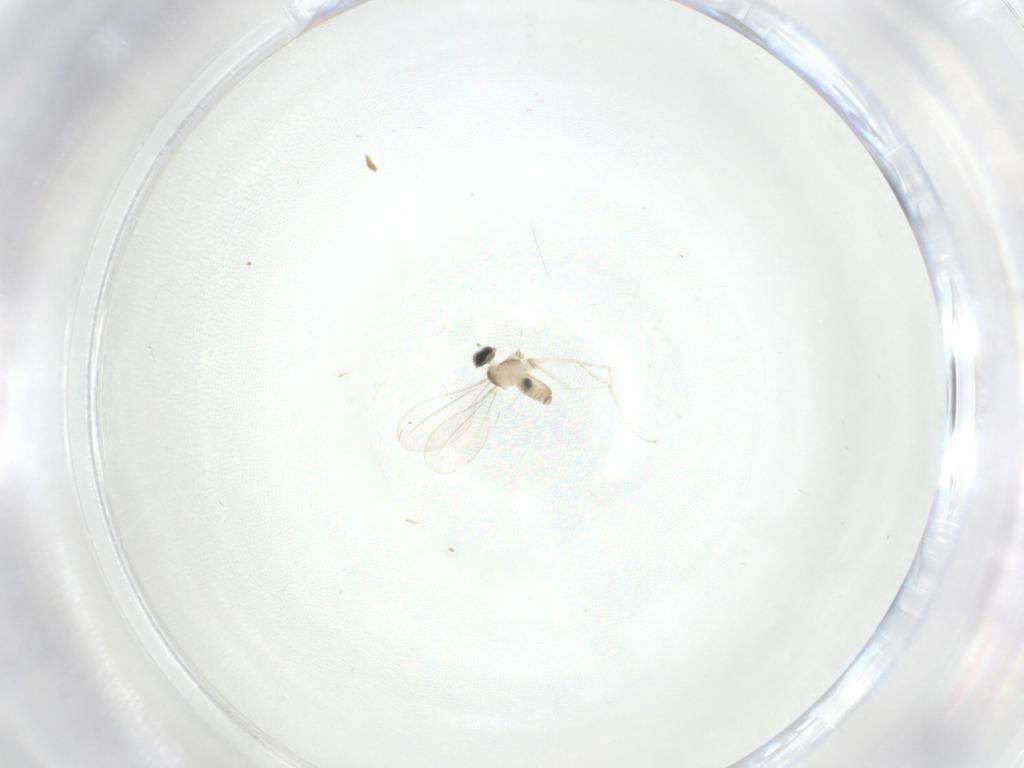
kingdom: Animalia
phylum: Arthropoda
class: Insecta
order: Diptera
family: Cecidomyiidae
